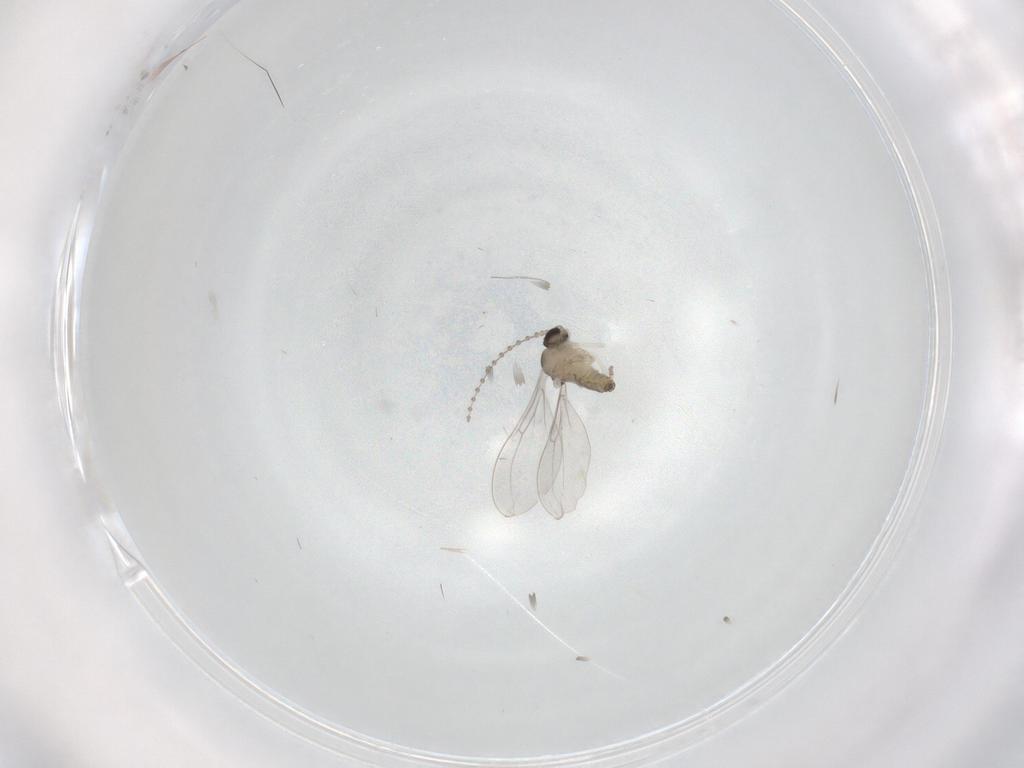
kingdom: Animalia
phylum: Arthropoda
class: Insecta
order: Diptera
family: Cecidomyiidae
